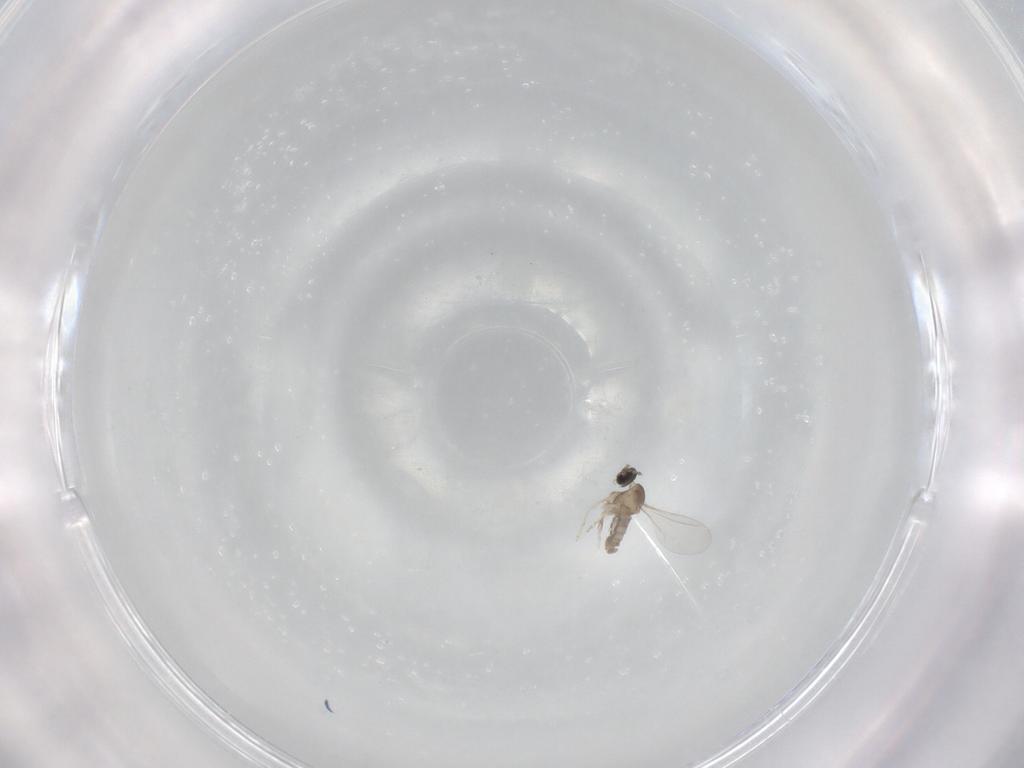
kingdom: Animalia
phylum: Arthropoda
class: Insecta
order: Diptera
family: Cecidomyiidae
